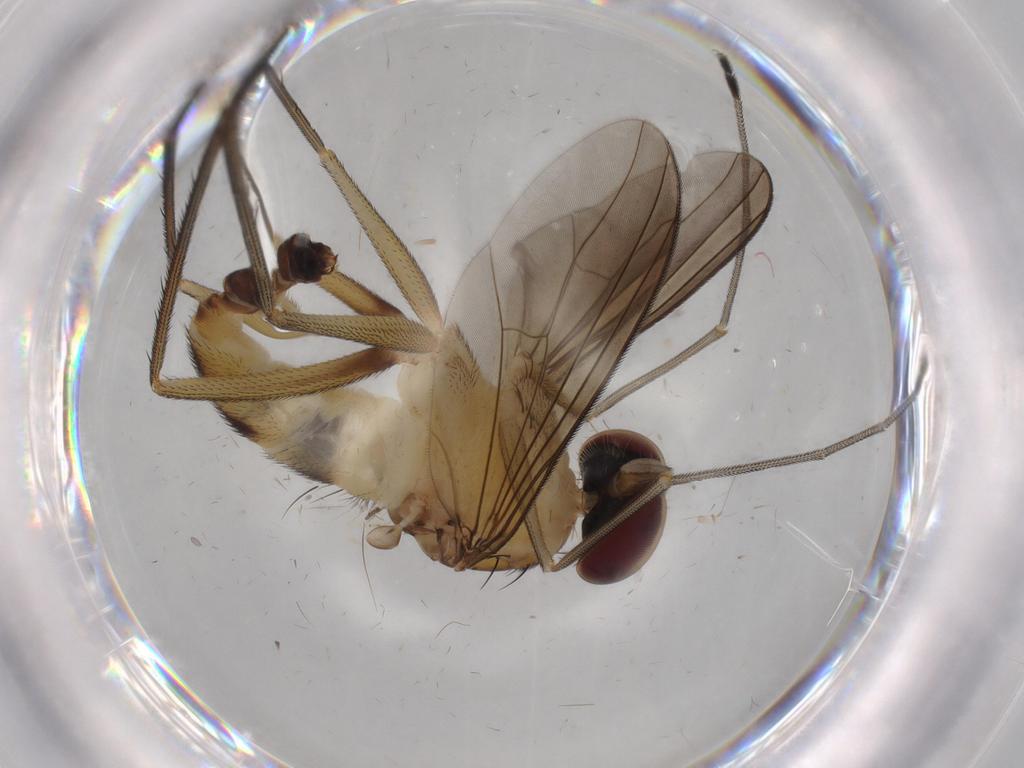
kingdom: Animalia
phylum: Arthropoda
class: Insecta
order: Diptera
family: Dolichopodidae
